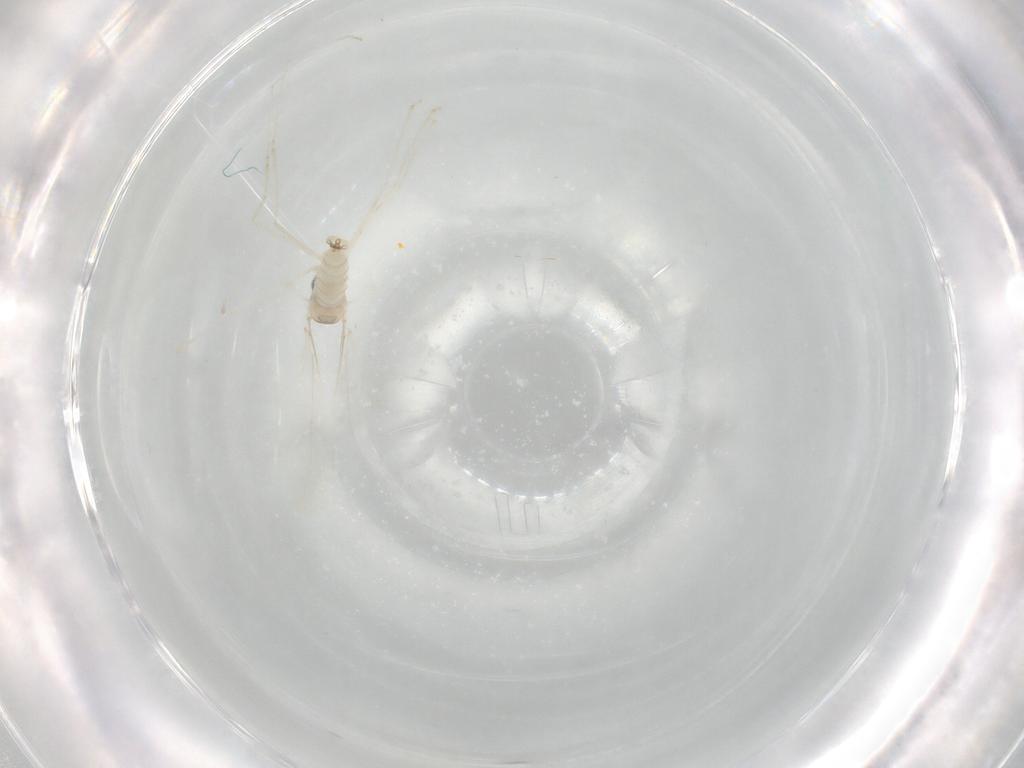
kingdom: Animalia
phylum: Arthropoda
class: Insecta
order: Diptera
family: Cecidomyiidae
